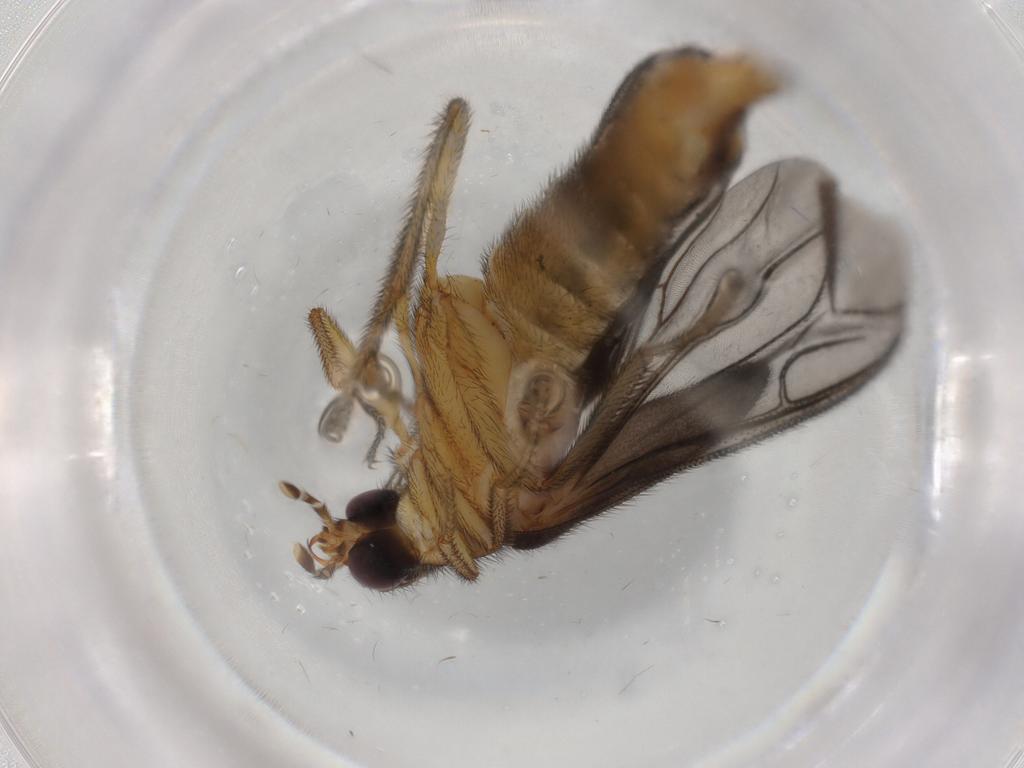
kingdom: Animalia
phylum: Arthropoda
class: Insecta
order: Diptera
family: Chironomidae
